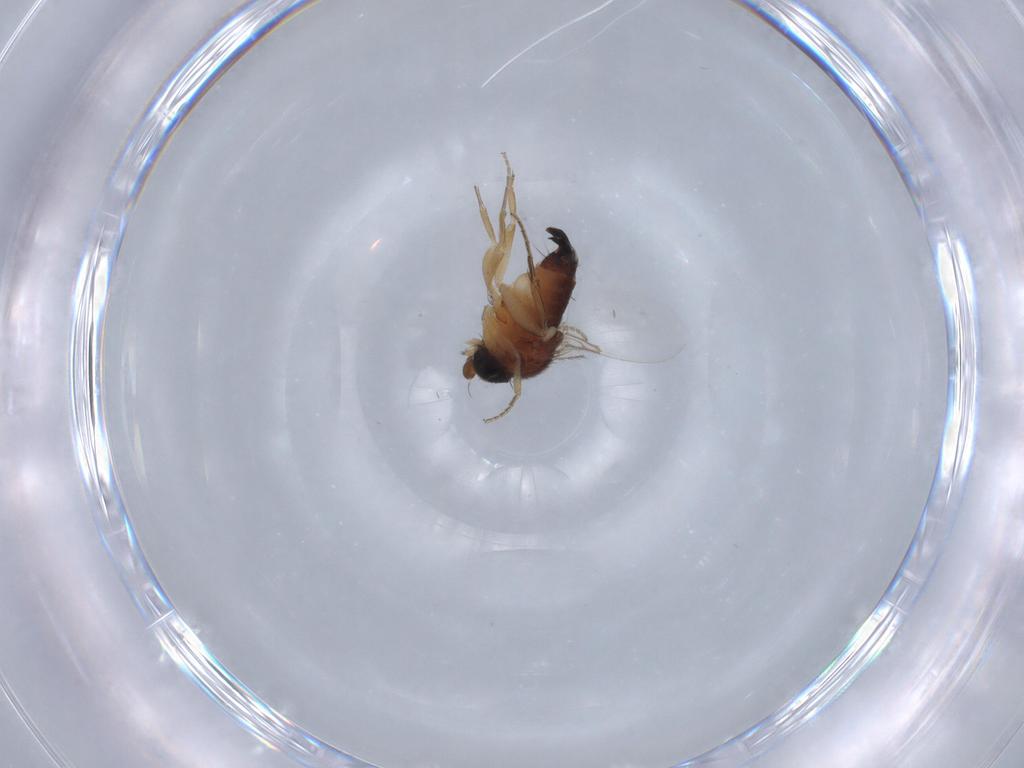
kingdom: Animalia
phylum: Arthropoda
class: Insecta
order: Diptera
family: Phoridae
